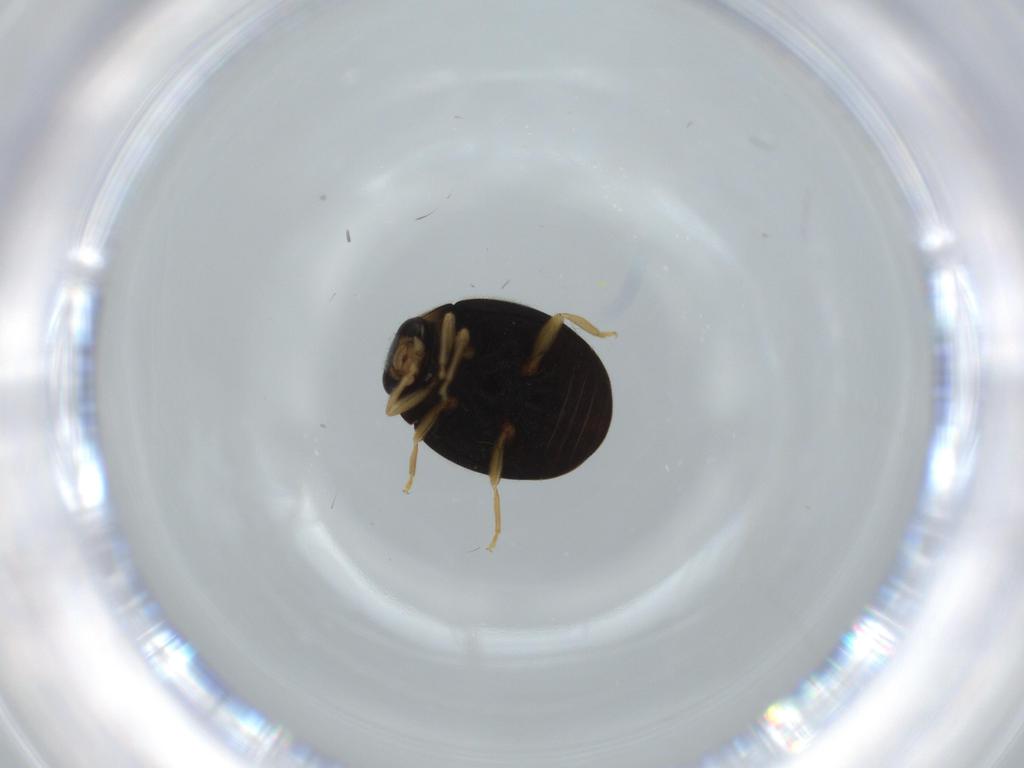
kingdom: Animalia
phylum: Arthropoda
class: Insecta
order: Coleoptera
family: Coccinellidae
